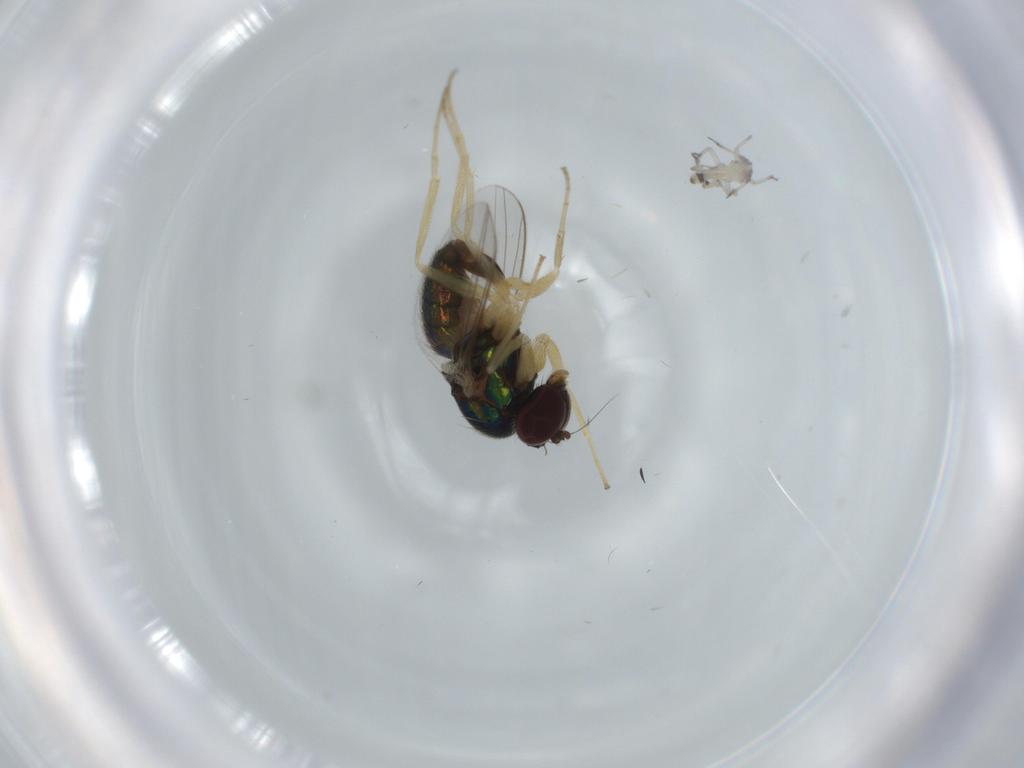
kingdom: Animalia
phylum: Arthropoda
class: Insecta
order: Diptera
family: Dolichopodidae
